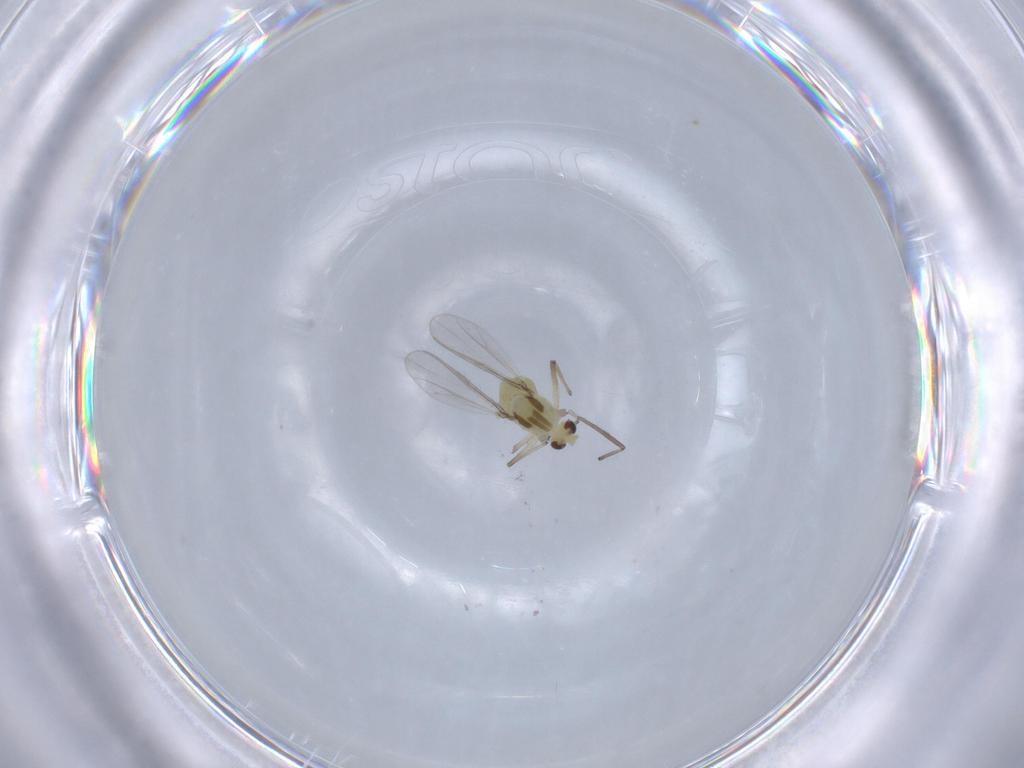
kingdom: Animalia
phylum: Arthropoda
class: Insecta
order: Diptera
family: Chironomidae
